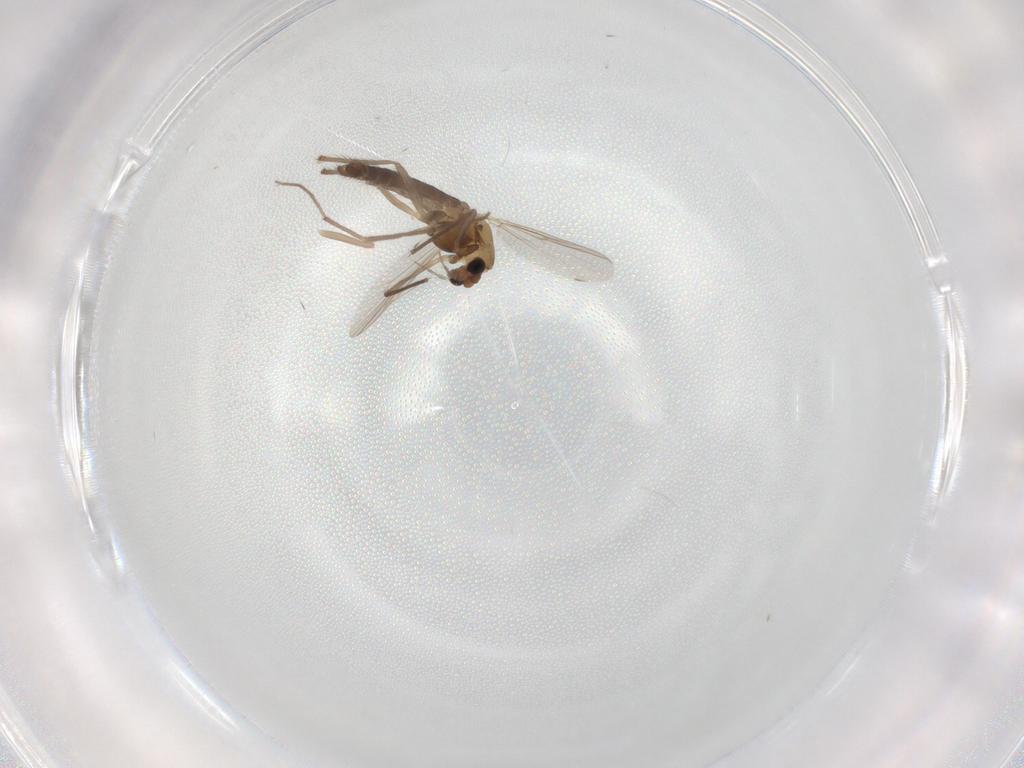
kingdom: Animalia
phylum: Arthropoda
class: Insecta
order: Diptera
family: Chironomidae
